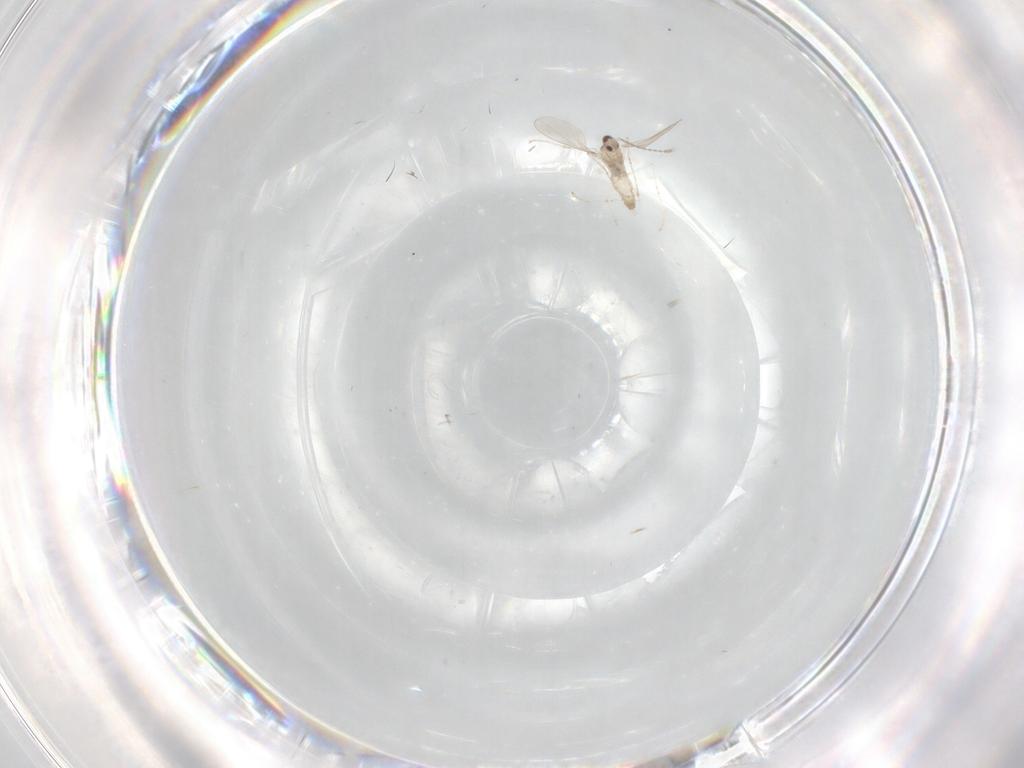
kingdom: Animalia
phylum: Arthropoda
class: Insecta
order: Diptera
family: Cecidomyiidae
